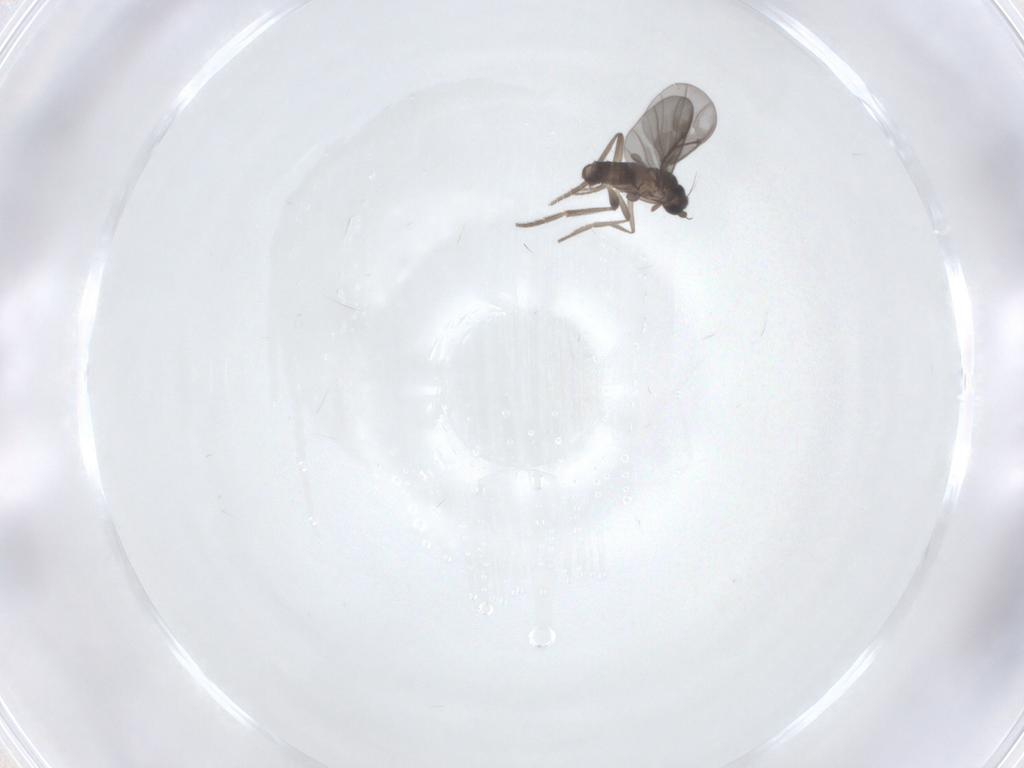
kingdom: Animalia
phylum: Arthropoda
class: Insecta
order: Diptera
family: Phoridae
